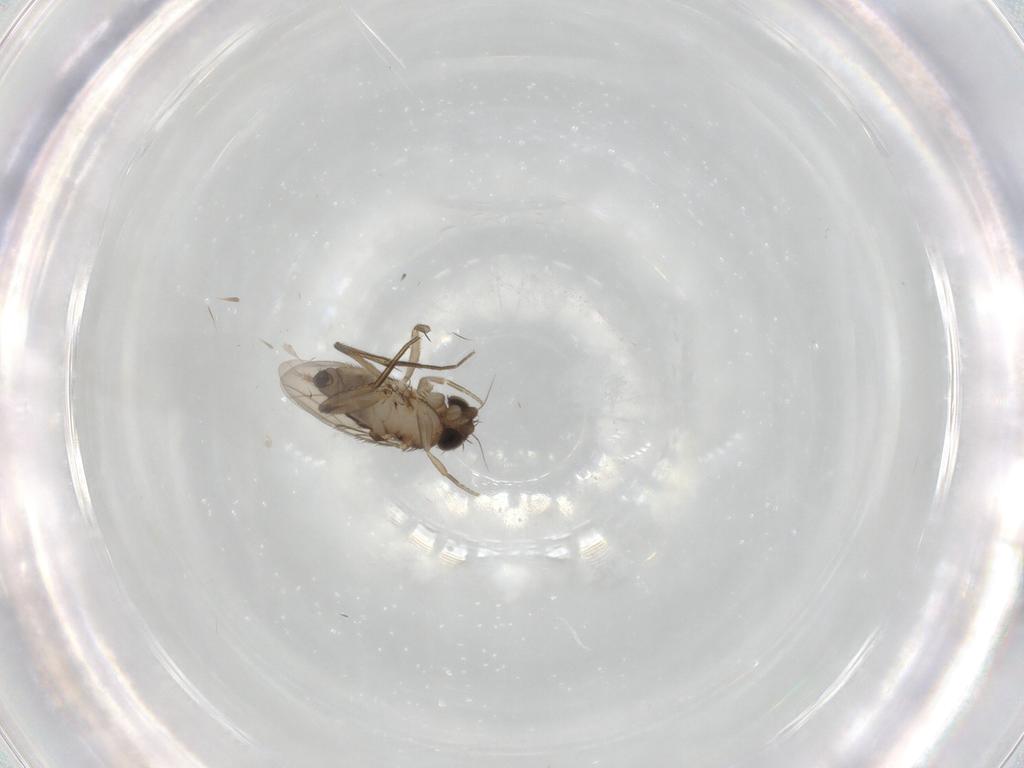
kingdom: Animalia
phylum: Arthropoda
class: Insecta
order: Diptera
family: Phoridae
